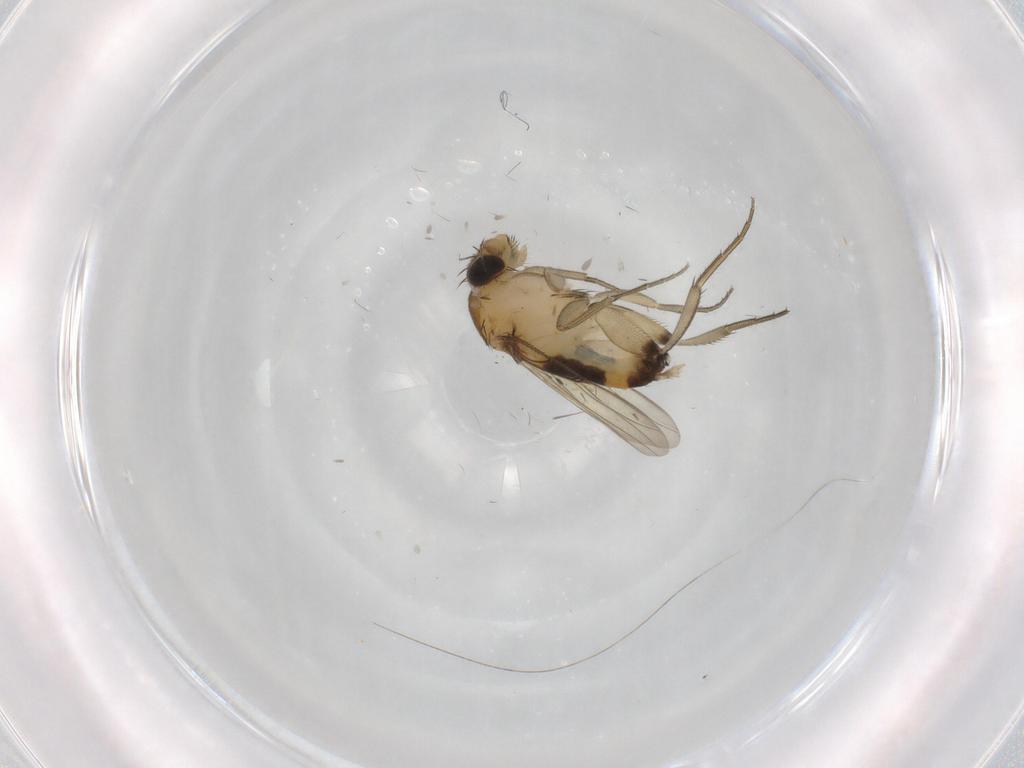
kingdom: Animalia
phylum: Arthropoda
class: Insecta
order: Diptera
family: Phoridae
